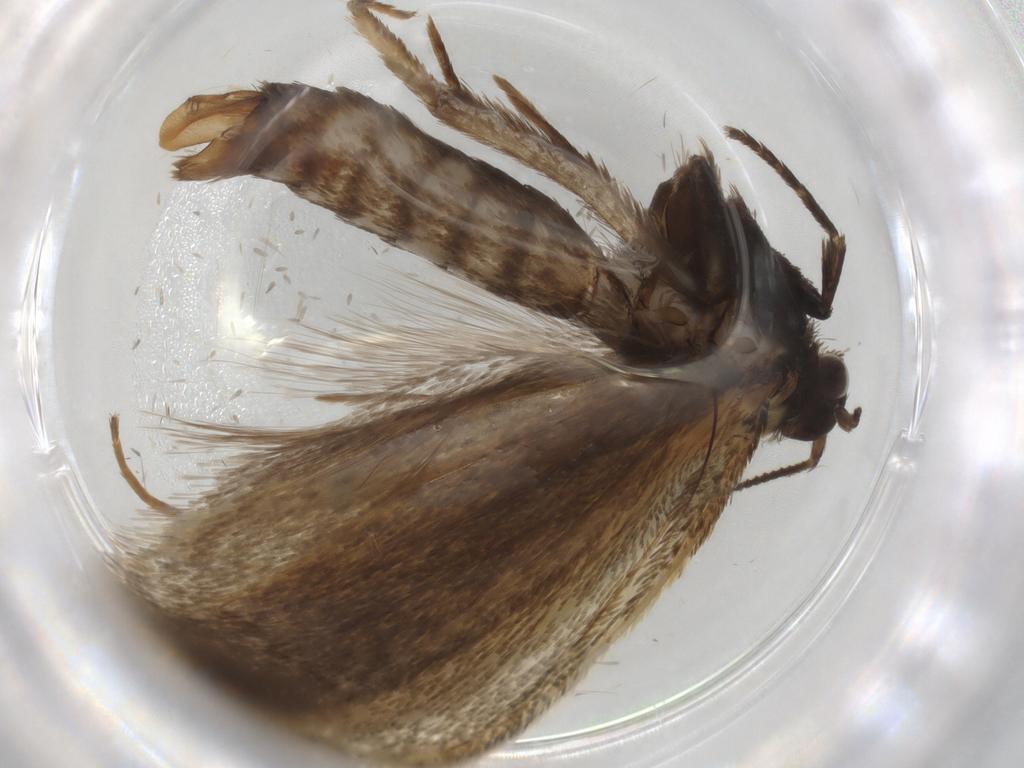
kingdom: Animalia
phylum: Arthropoda
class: Insecta
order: Lepidoptera
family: Crambidae
